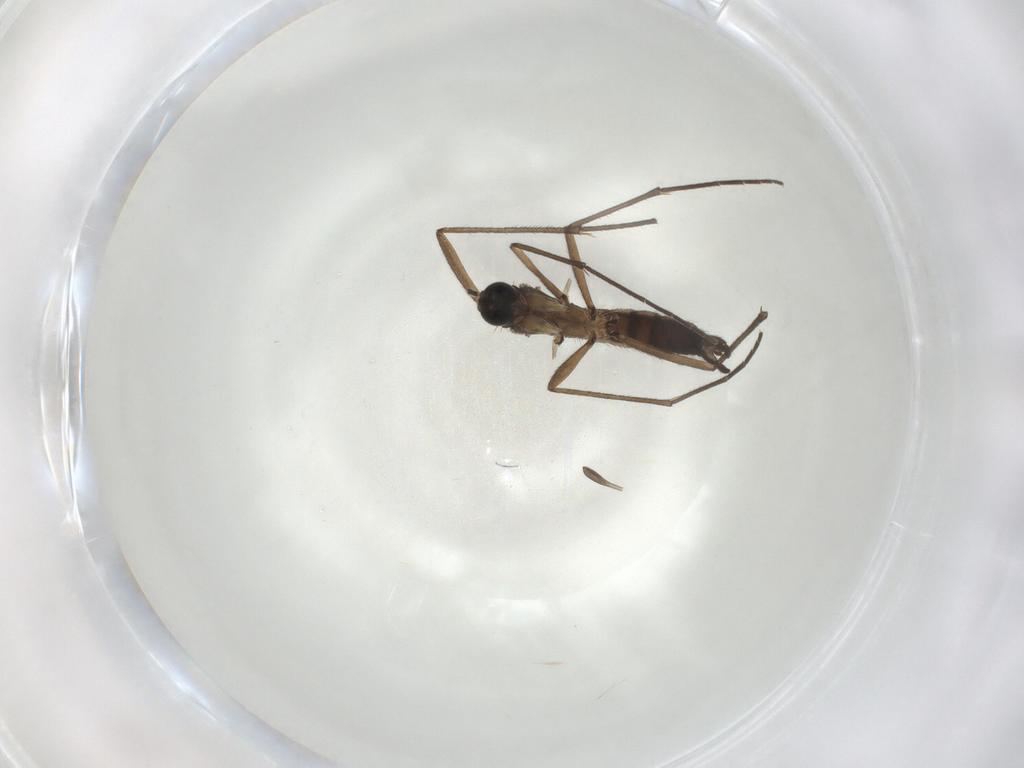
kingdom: Animalia
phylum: Arthropoda
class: Insecta
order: Diptera
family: Sciaridae
